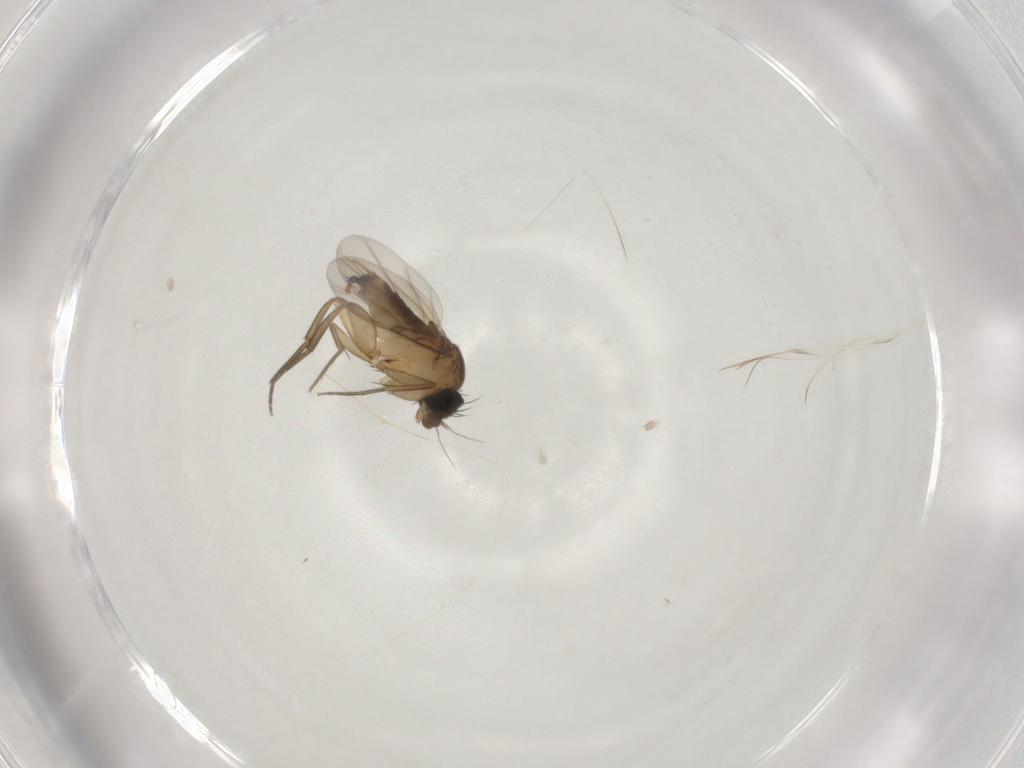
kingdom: Animalia
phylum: Arthropoda
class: Insecta
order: Diptera
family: Phoridae
